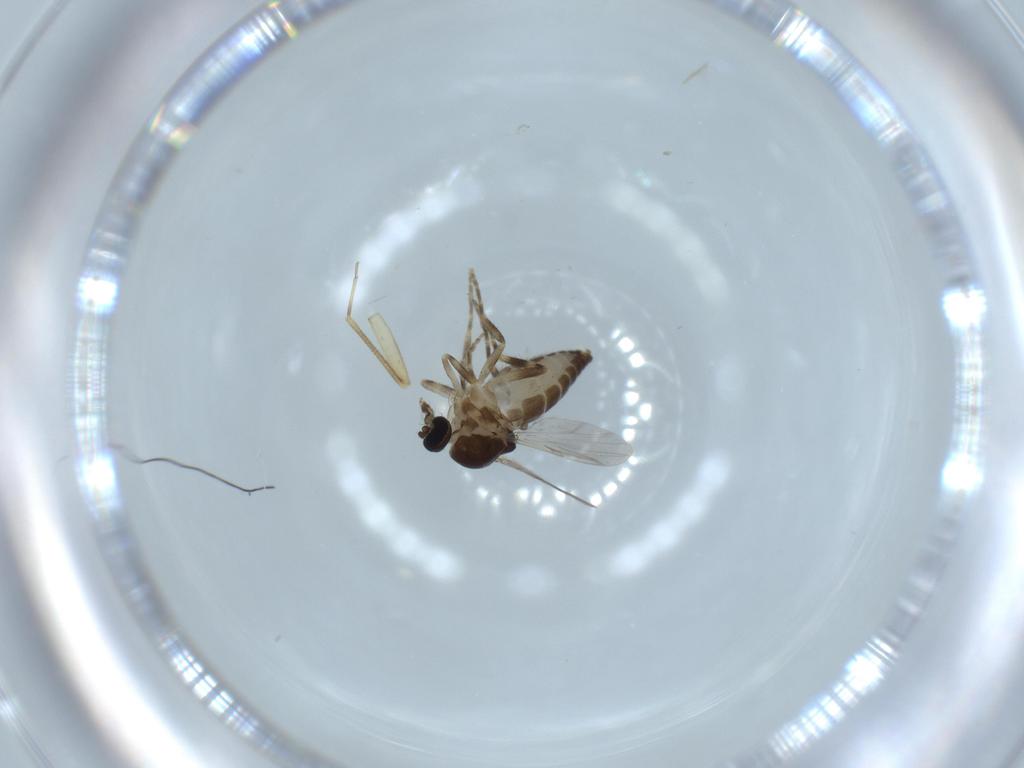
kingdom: Animalia
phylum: Arthropoda
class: Insecta
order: Diptera
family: Ceratopogonidae
